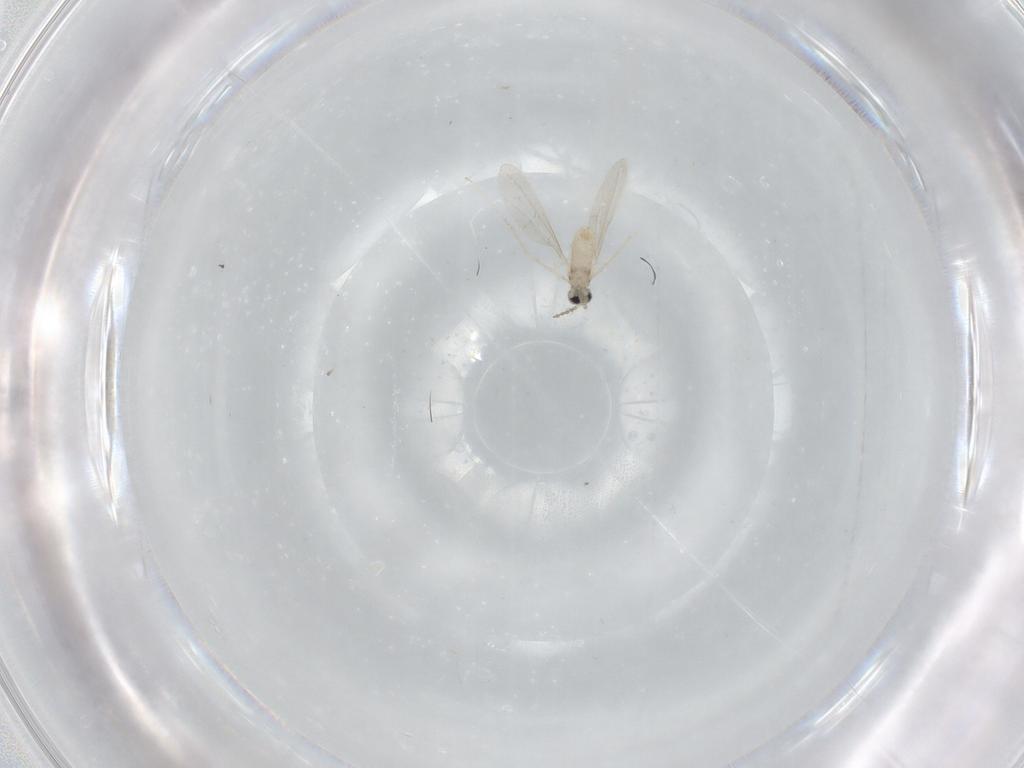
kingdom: Animalia
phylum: Arthropoda
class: Insecta
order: Diptera
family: Cecidomyiidae
